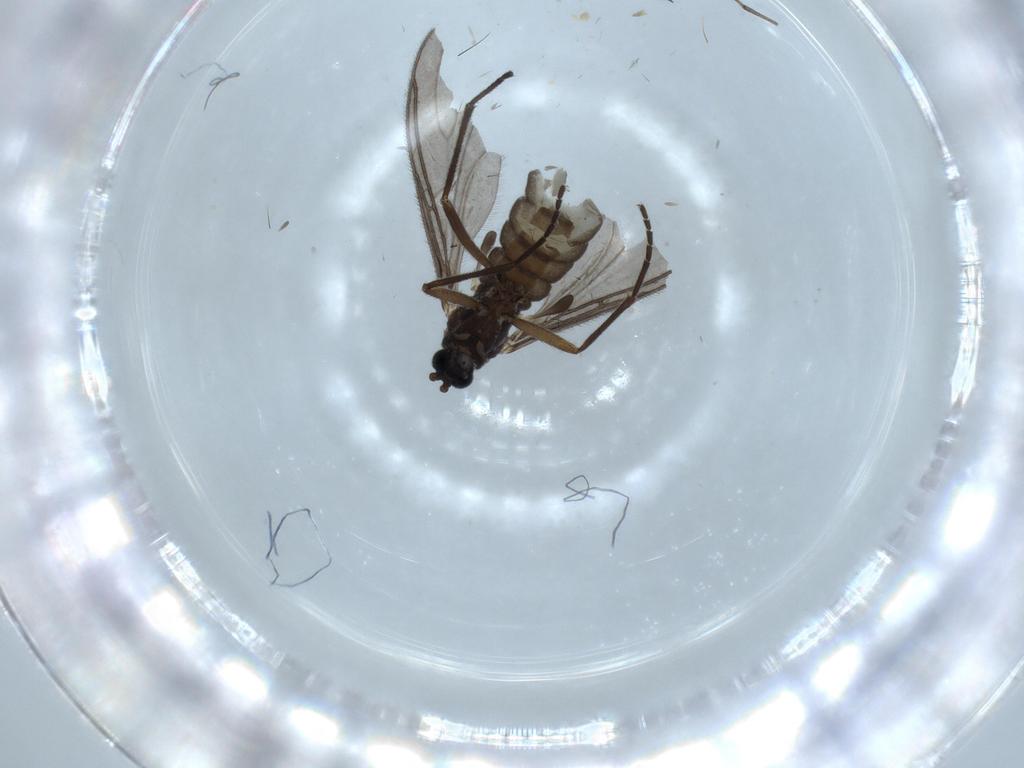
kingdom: Animalia
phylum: Arthropoda
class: Insecta
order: Diptera
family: Sciaridae
